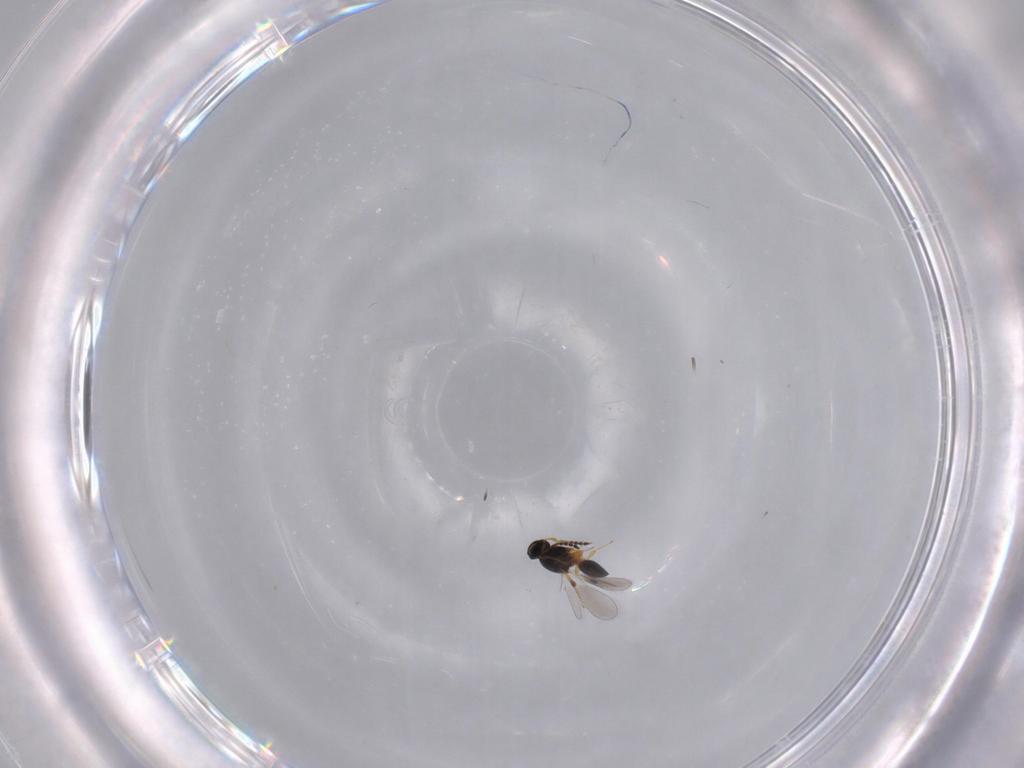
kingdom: Animalia
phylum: Arthropoda
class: Insecta
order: Hymenoptera
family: Platygastridae
